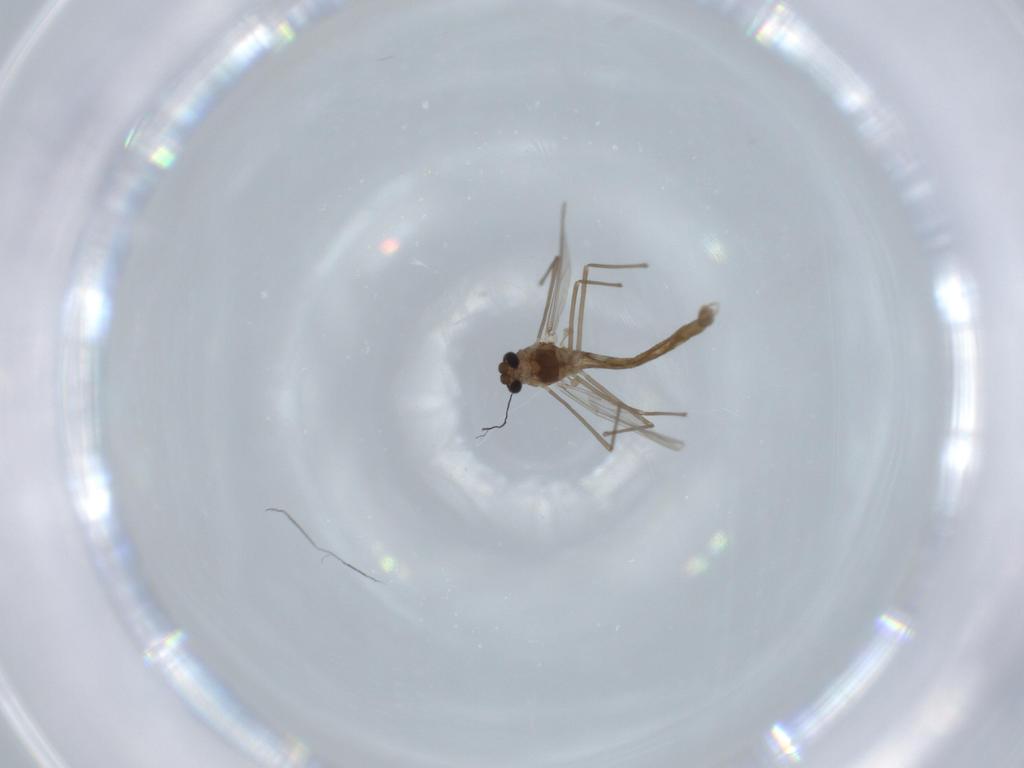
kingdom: Animalia
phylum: Arthropoda
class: Insecta
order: Diptera
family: Chironomidae
